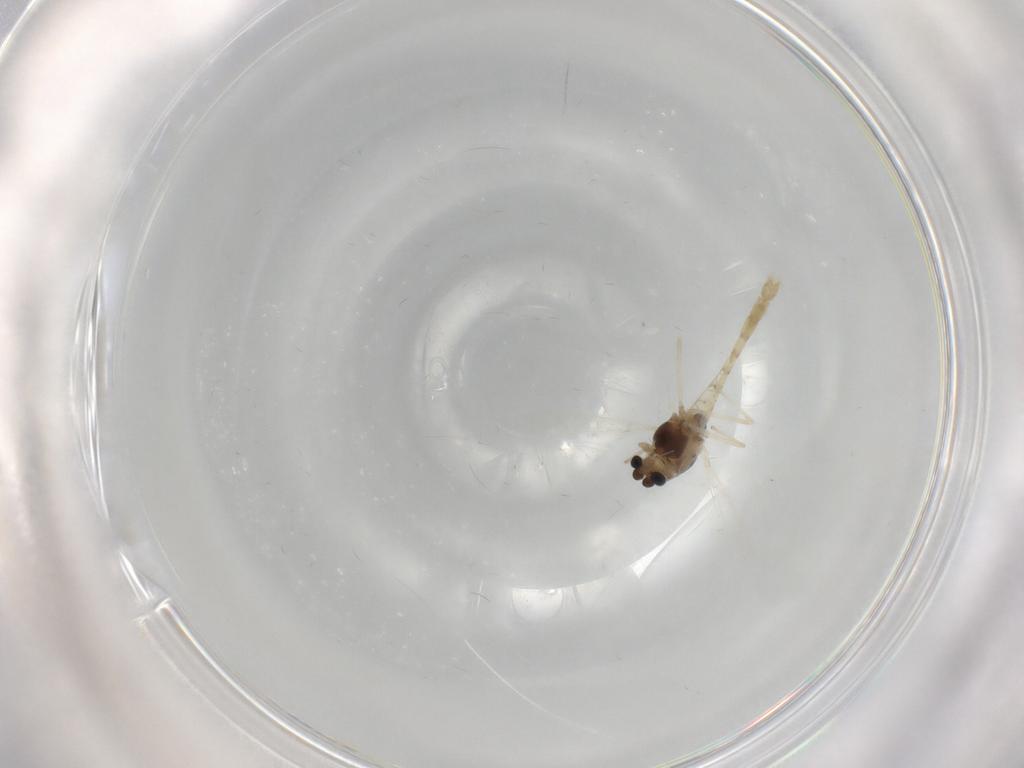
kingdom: Animalia
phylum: Arthropoda
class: Insecta
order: Diptera
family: Chironomidae
